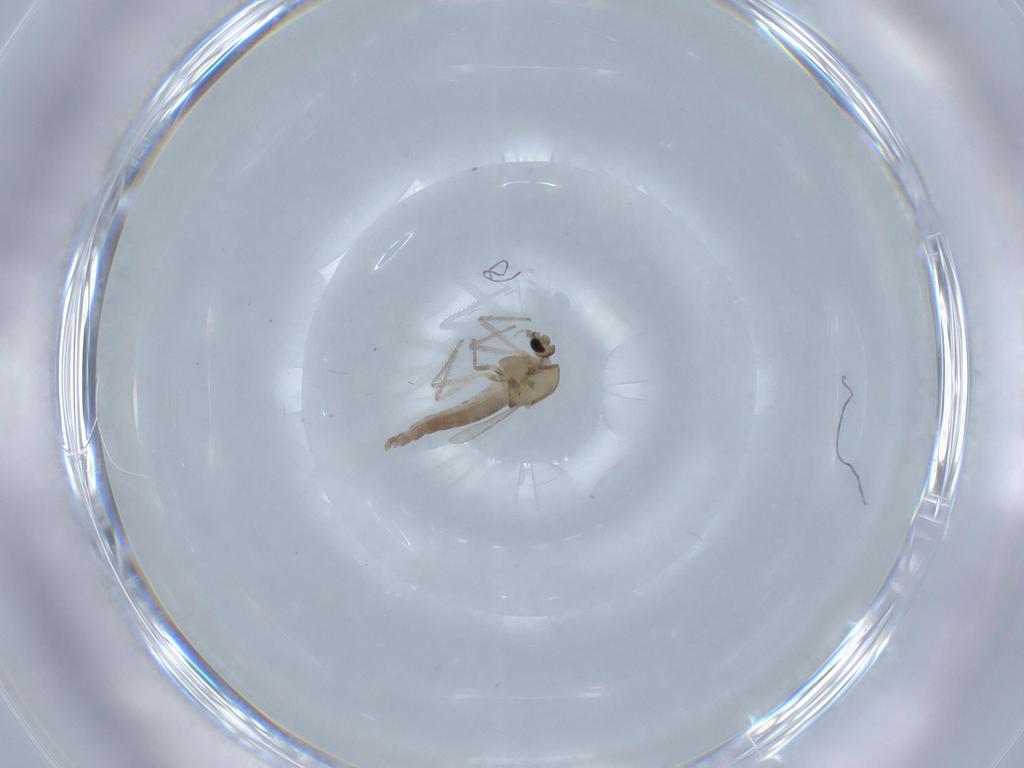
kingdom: Animalia
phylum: Arthropoda
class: Insecta
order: Diptera
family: Chironomidae
